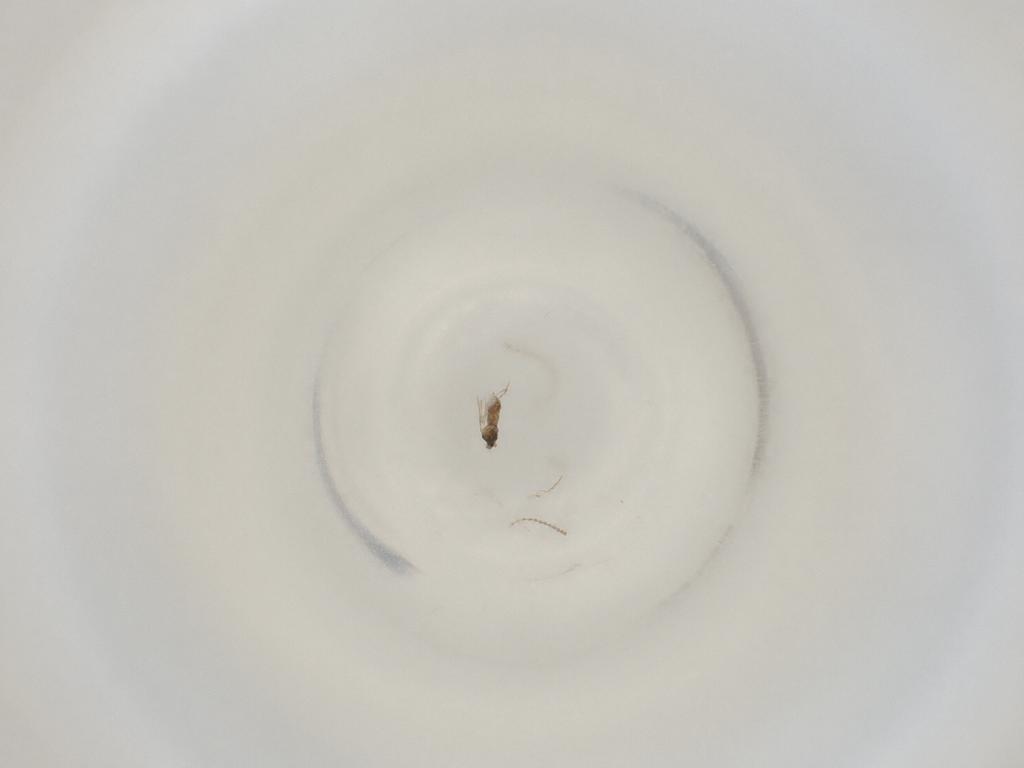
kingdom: Animalia
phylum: Arthropoda
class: Insecta
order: Diptera
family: Cecidomyiidae
